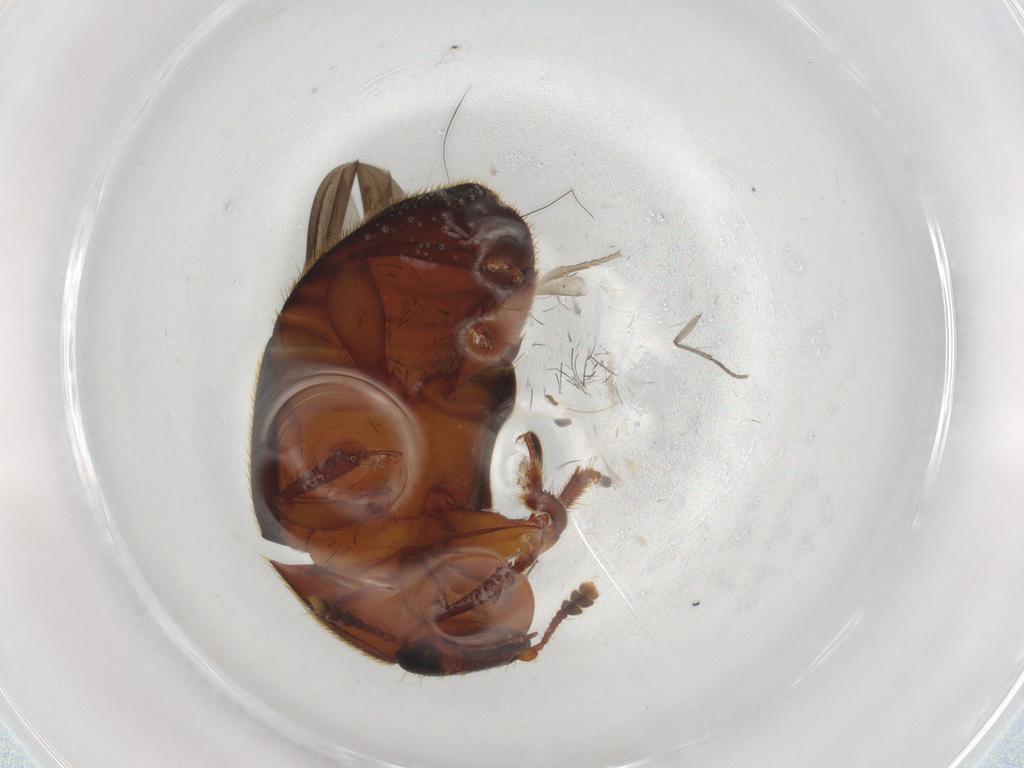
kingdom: Animalia
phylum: Arthropoda
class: Insecta
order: Coleoptera
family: Nitidulidae
